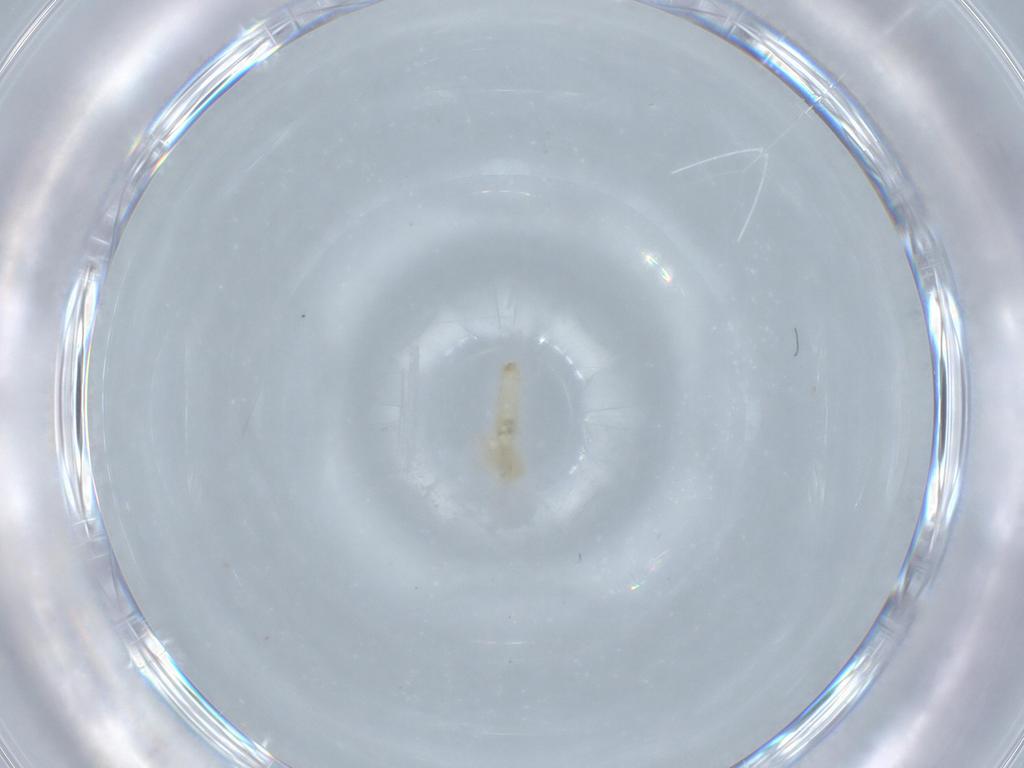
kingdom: Animalia
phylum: Arthropoda
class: Insecta
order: Diptera
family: Cecidomyiidae
